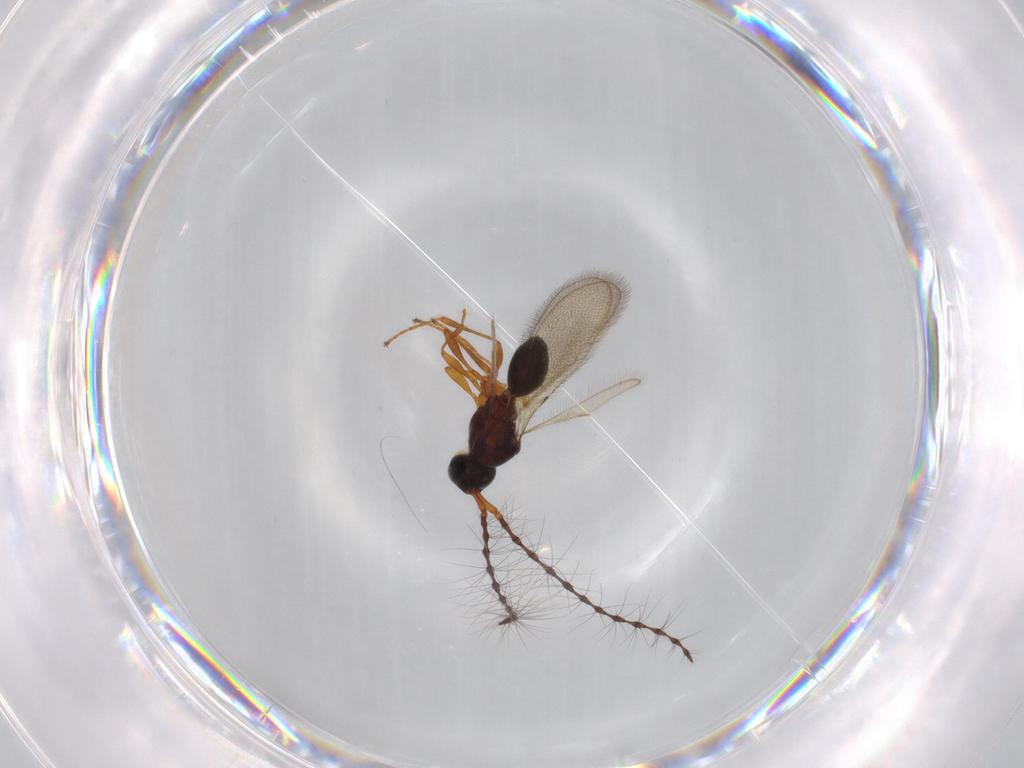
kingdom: Animalia
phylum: Arthropoda
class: Insecta
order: Hymenoptera
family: Diapriidae
